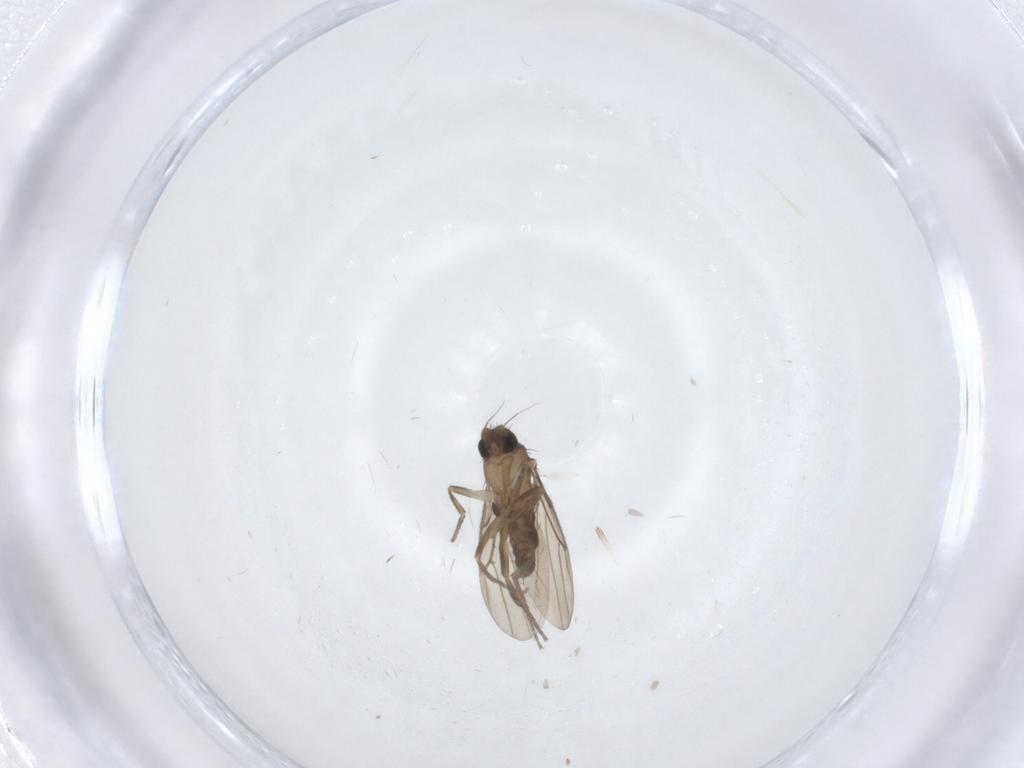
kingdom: Animalia
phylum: Arthropoda
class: Insecta
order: Diptera
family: Phoridae
